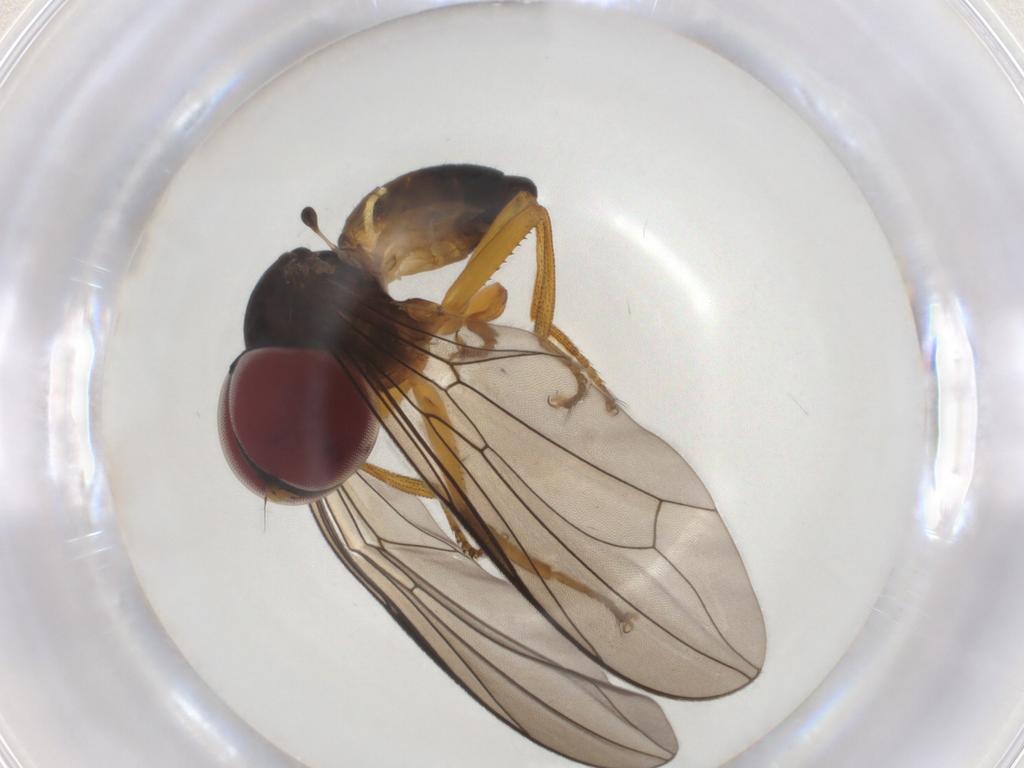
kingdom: Animalia
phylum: Arthropoda
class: Insecta
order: Diptera
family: Pipunculidae
